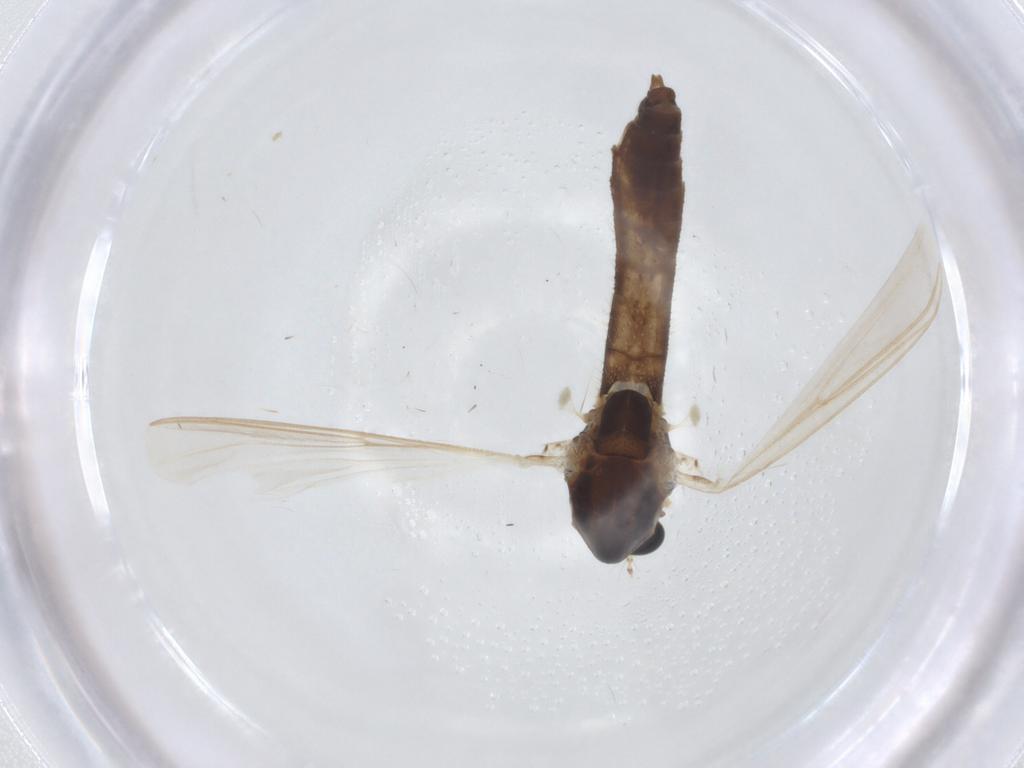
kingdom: Animalia
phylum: Arthropoda
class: Insecta
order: Diptera
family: Chironomidae
